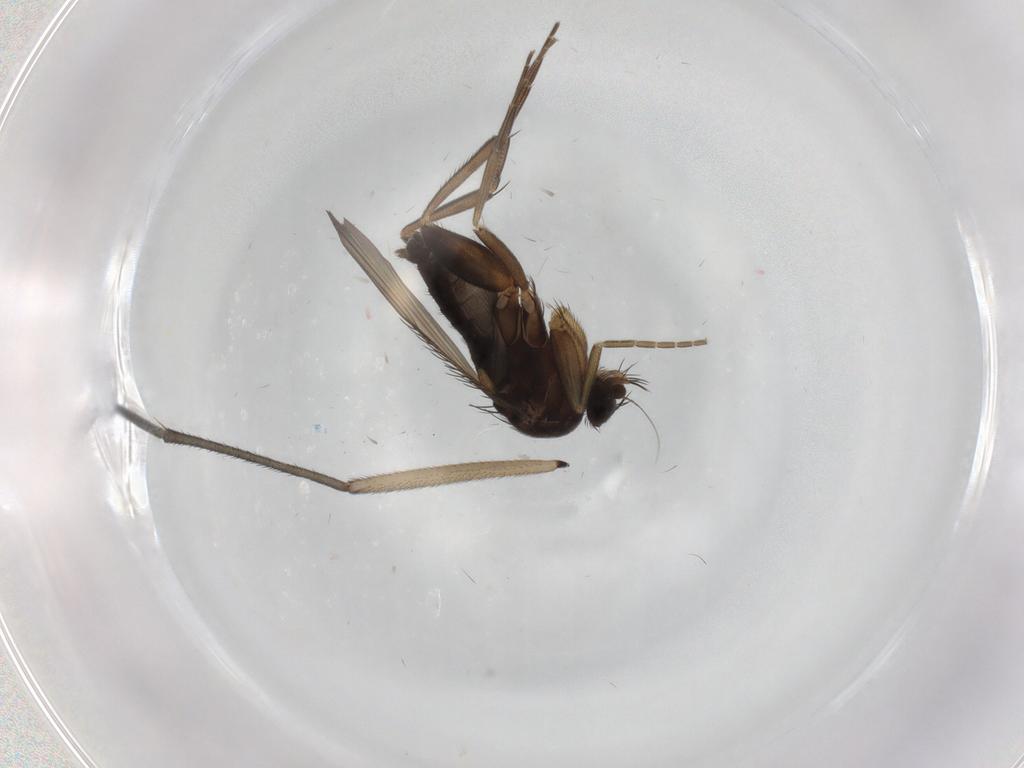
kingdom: Animalia
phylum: Arthropoda
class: Insecta
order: Diptera
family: Phoridae
